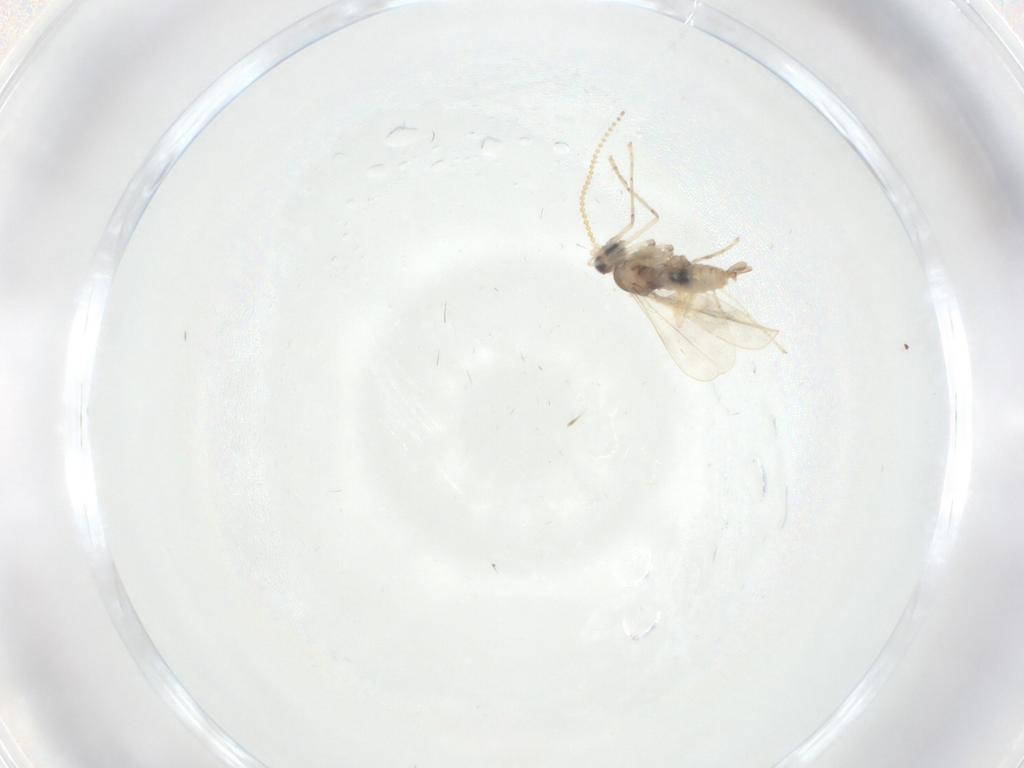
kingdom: Animalia
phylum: Arthropoda
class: Insecta
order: Diptera
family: Cecidomyiidae
